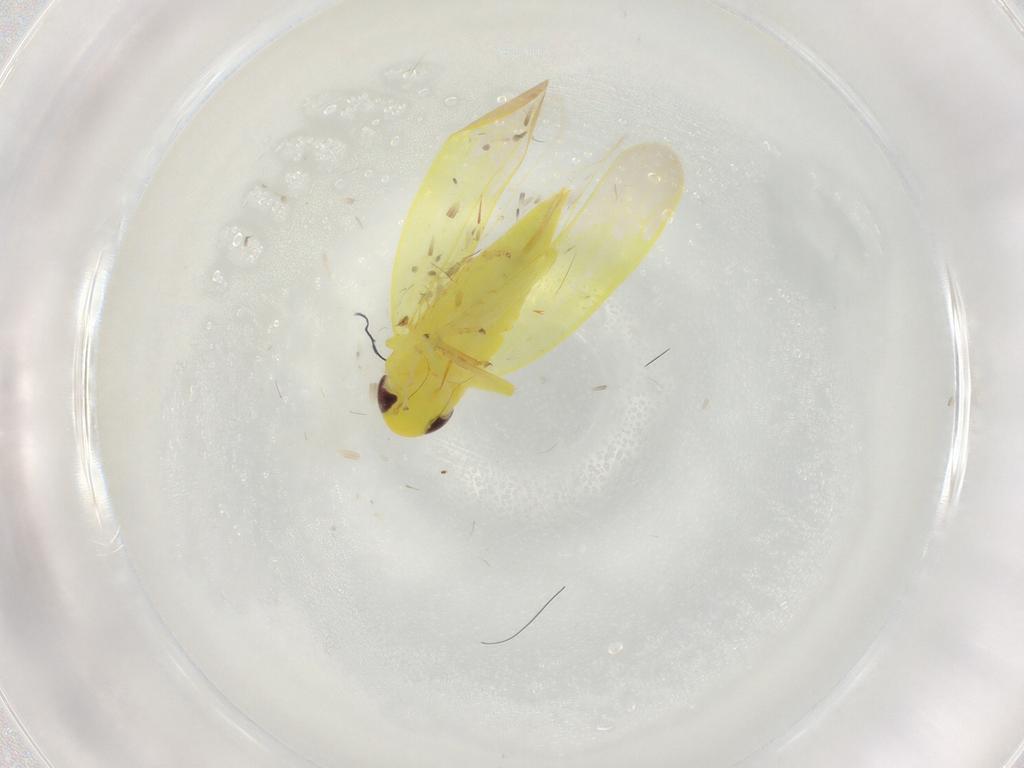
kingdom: Animalia
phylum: Arthropoda
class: Insecta
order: Hemiptera
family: Cicadellidae
